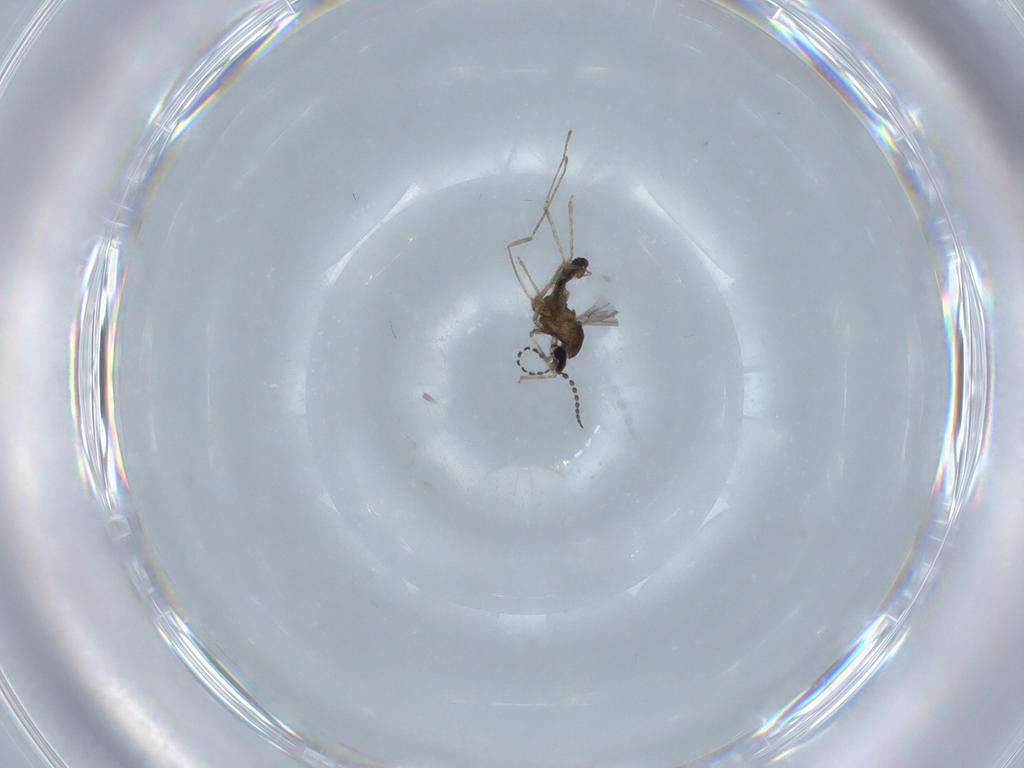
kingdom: Animalia
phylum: Arthropoda
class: Insecta
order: Diptera
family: Cecidomyiidae
